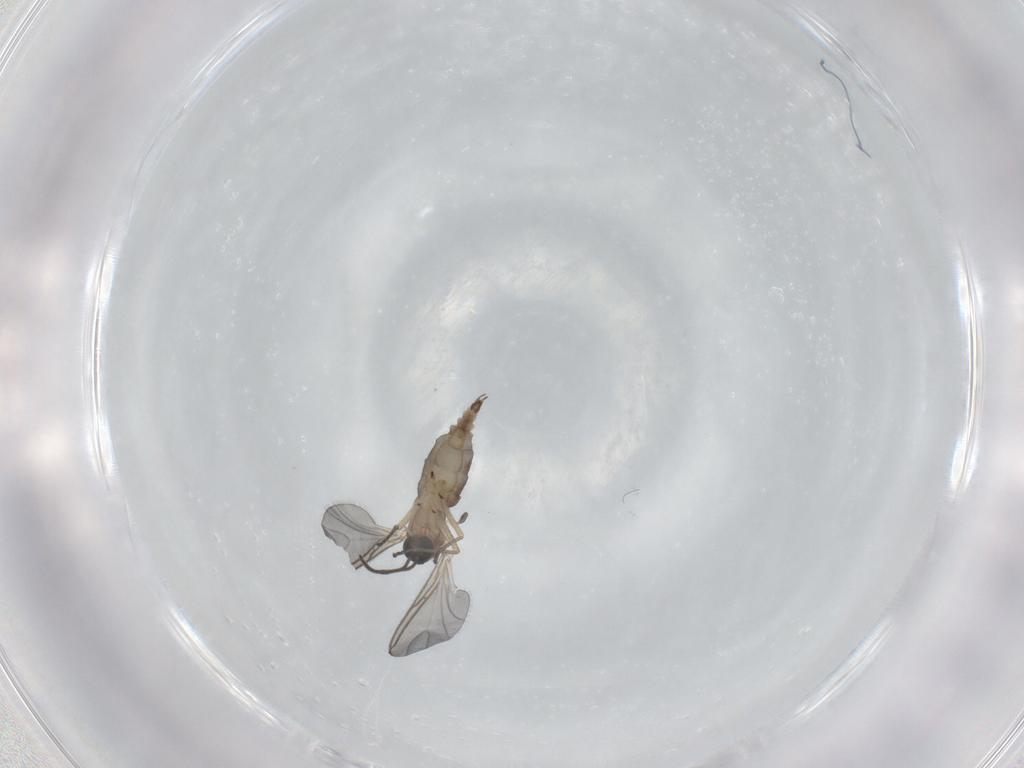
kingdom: Animalia
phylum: Arthropoda
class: Insecta
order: Diptera
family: Sciaridae
